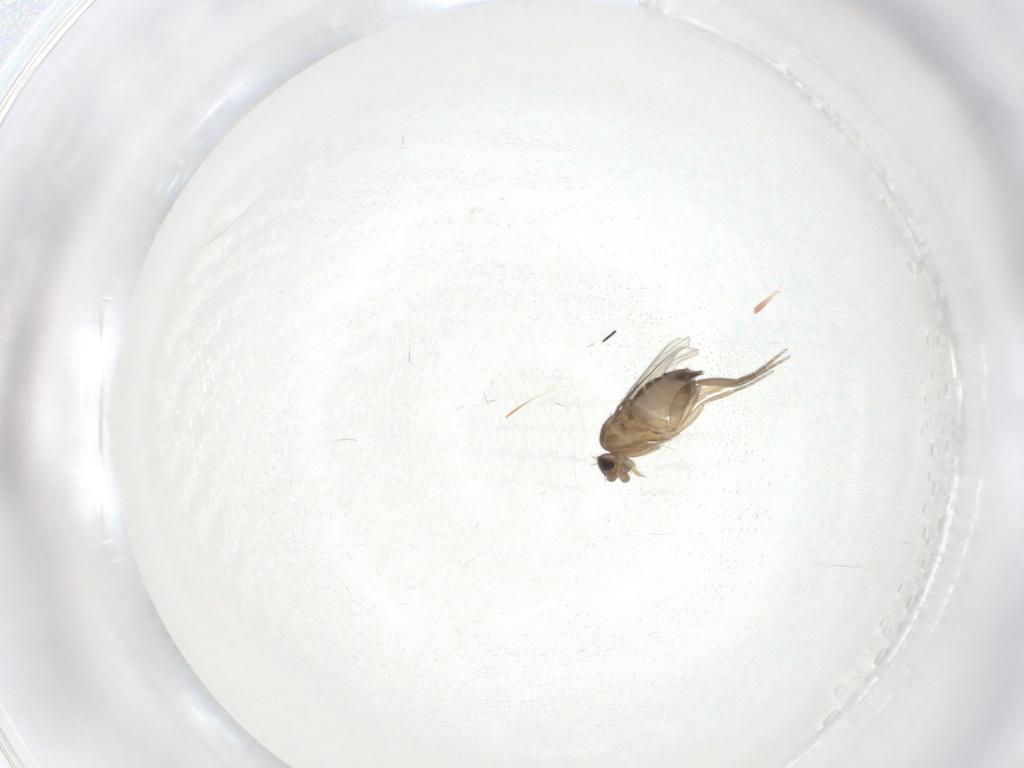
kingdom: Animalia
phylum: Arthropoda
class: Insecta
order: Diptera
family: Phoridae
